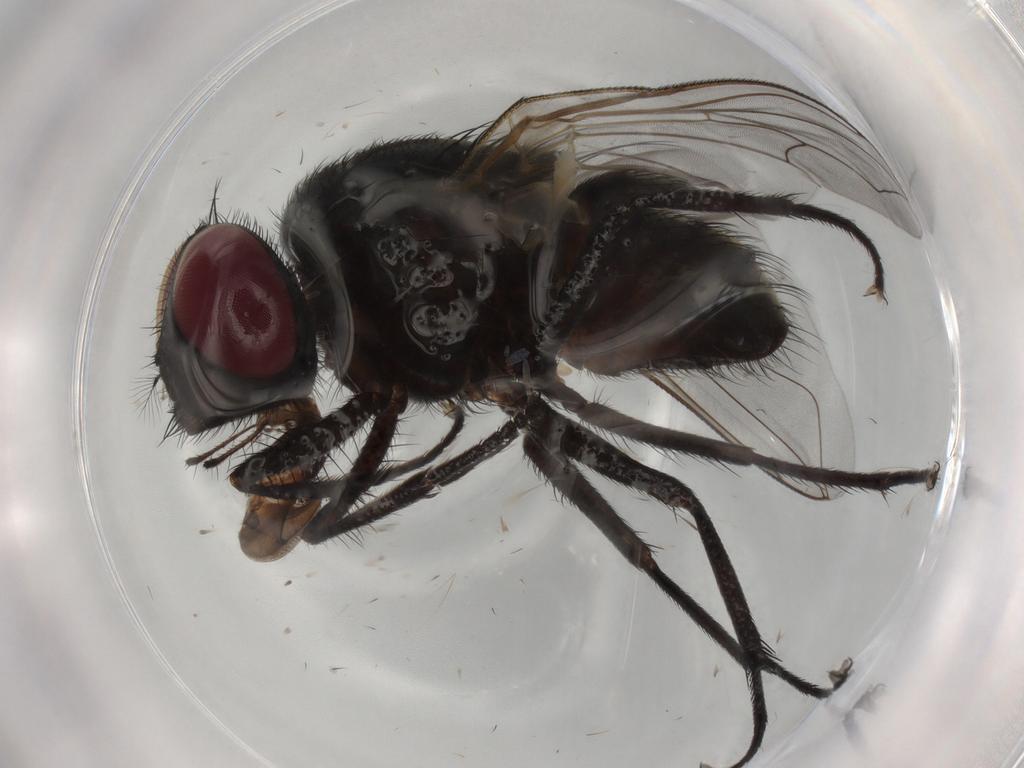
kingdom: Animalia
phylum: Arthropoda
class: Insecta
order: Diptera
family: Muscidae
